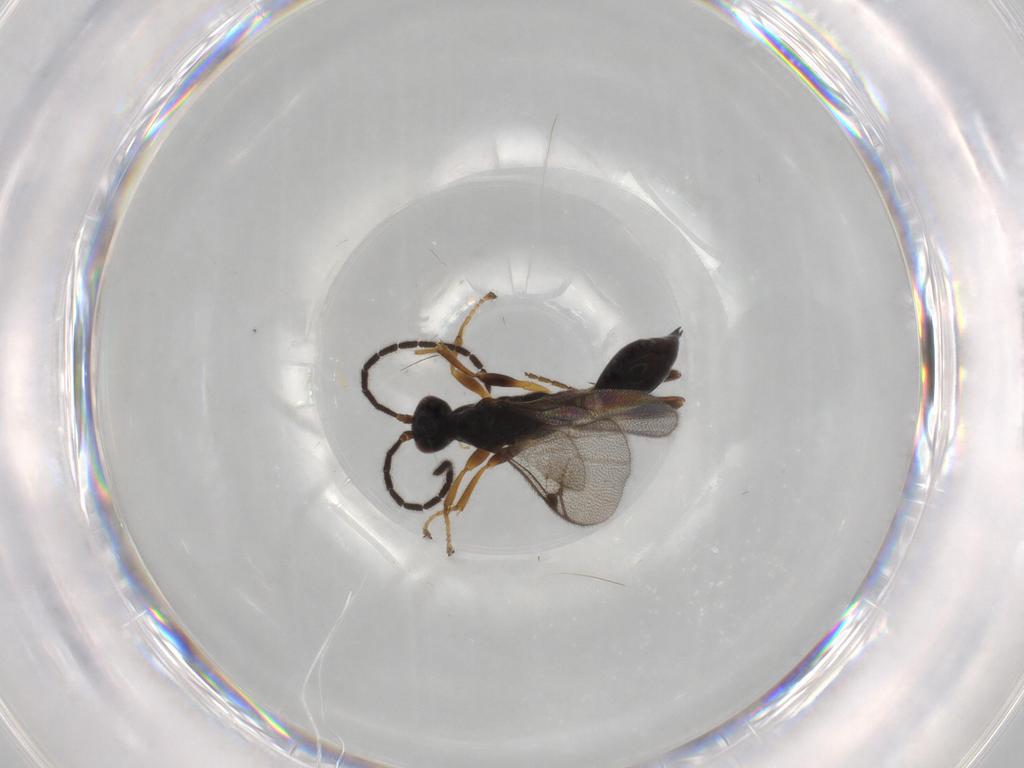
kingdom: Animalia
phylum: Arthropoda
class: Insecta
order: Hymenoptera
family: Proctotrupidae
